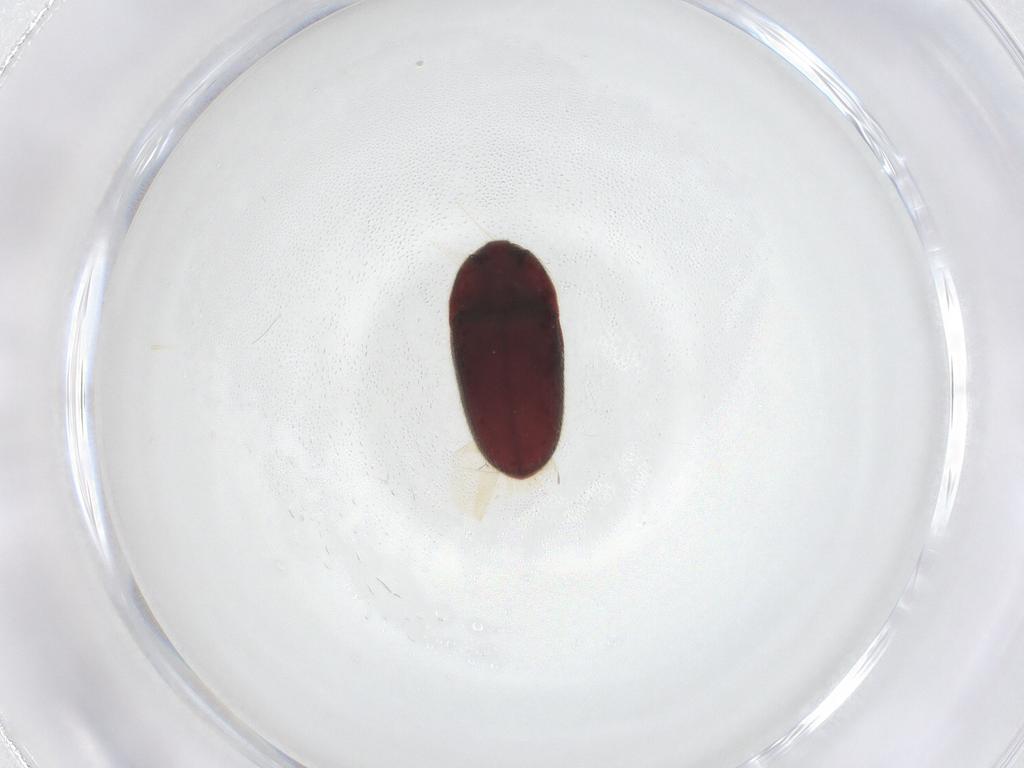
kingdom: Animalia
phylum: Arthropoda
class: Insecta
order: Coleoptera
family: Throscidae
